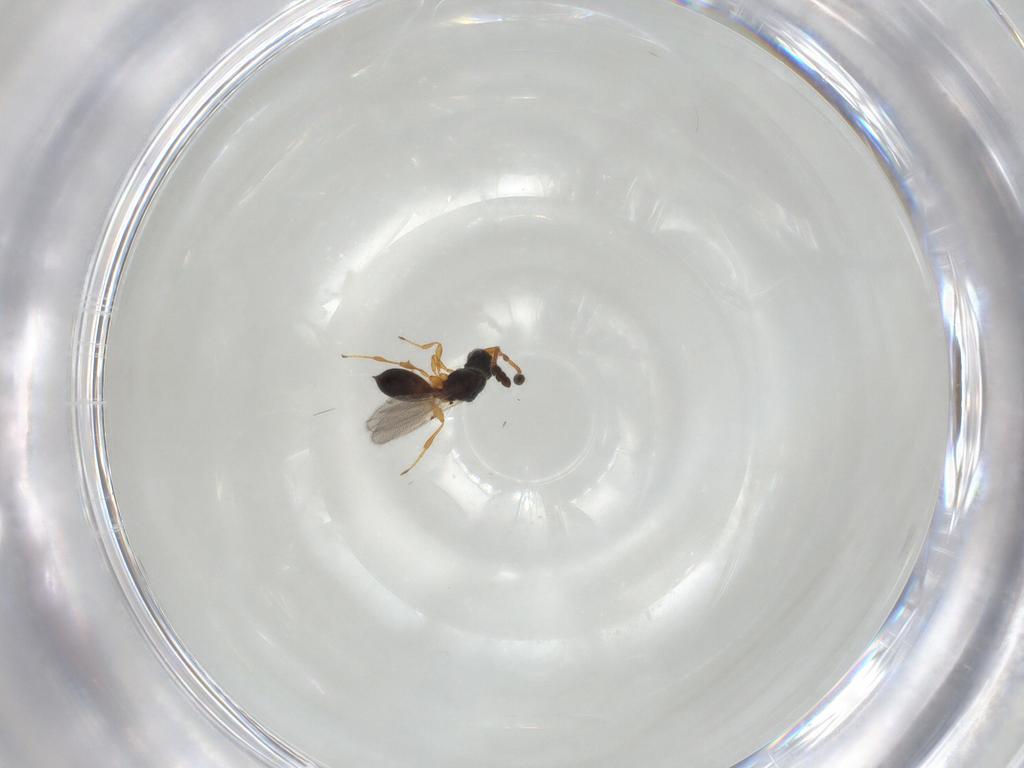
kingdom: Animalia
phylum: Arthropoda
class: Insecta
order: Hymenoptera
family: Diapriidae
